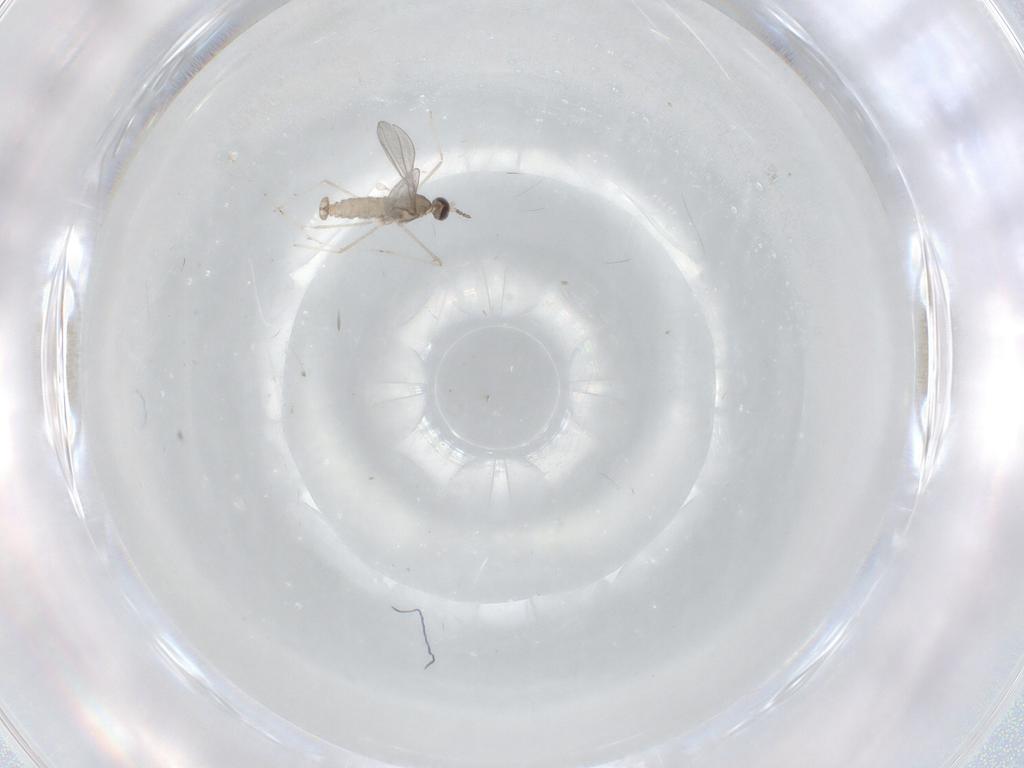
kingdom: Animalia
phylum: Arthropoda
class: Insecta
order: Diptera
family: Cecidomyiidae
